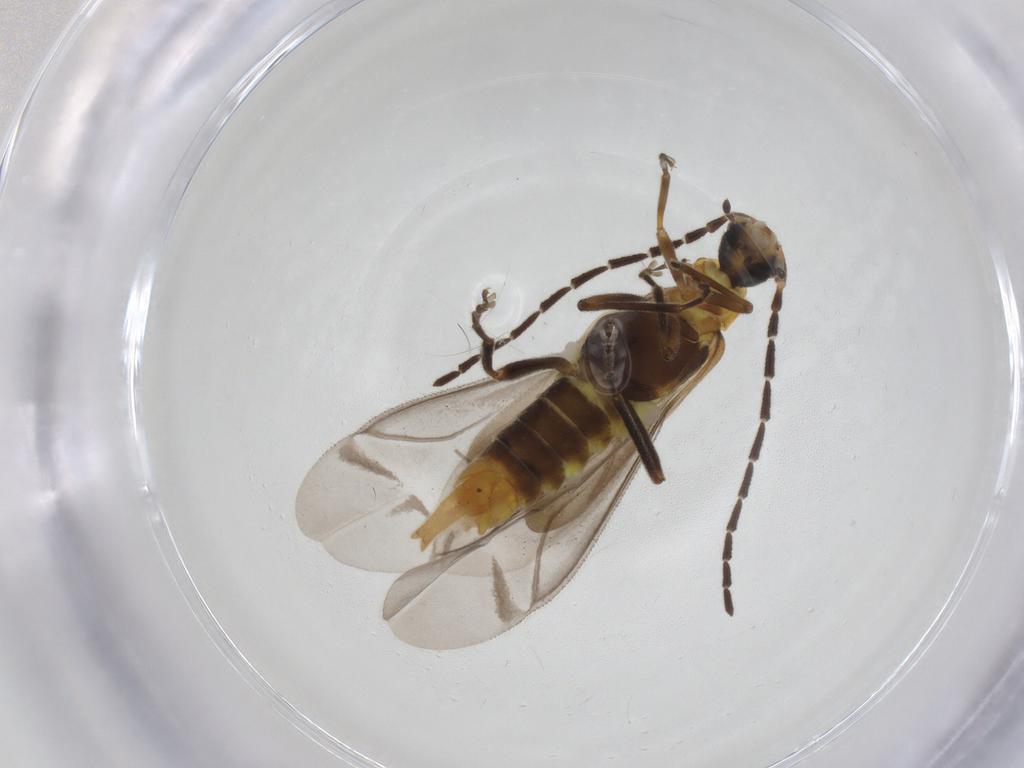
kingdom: Animalia
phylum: Arthropoda
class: Insecta
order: Coleoptera
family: Cantharidae
